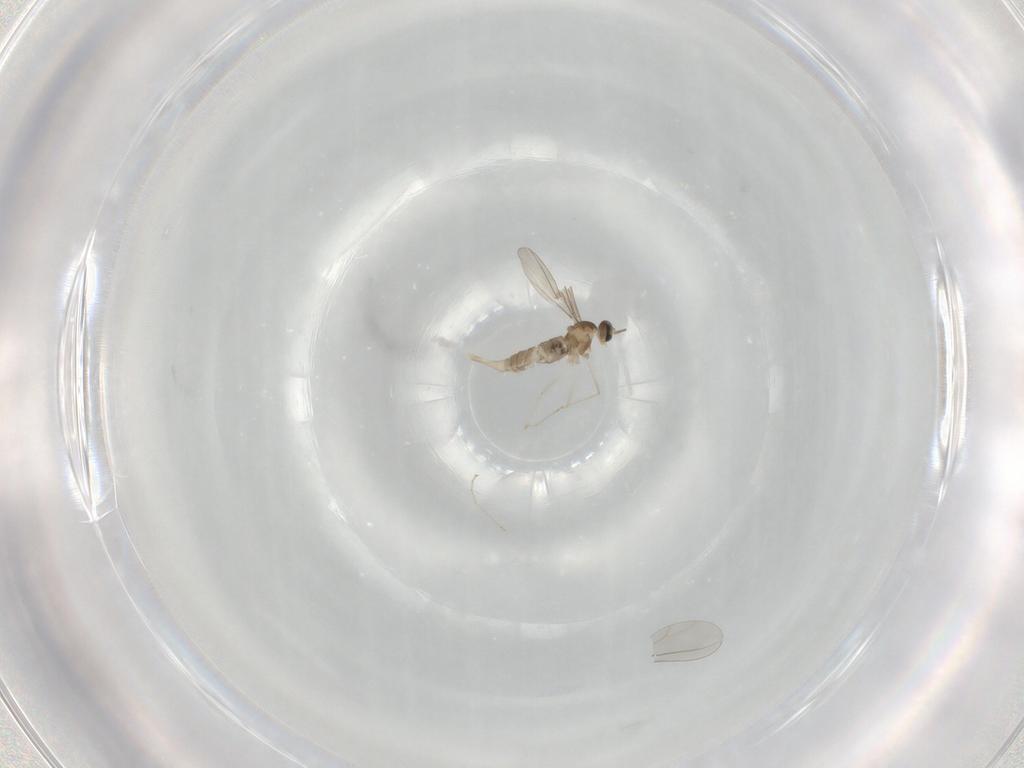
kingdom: Animalia
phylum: Arthropoda
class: Insecta
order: Diptera
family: Cecidomyiidae
